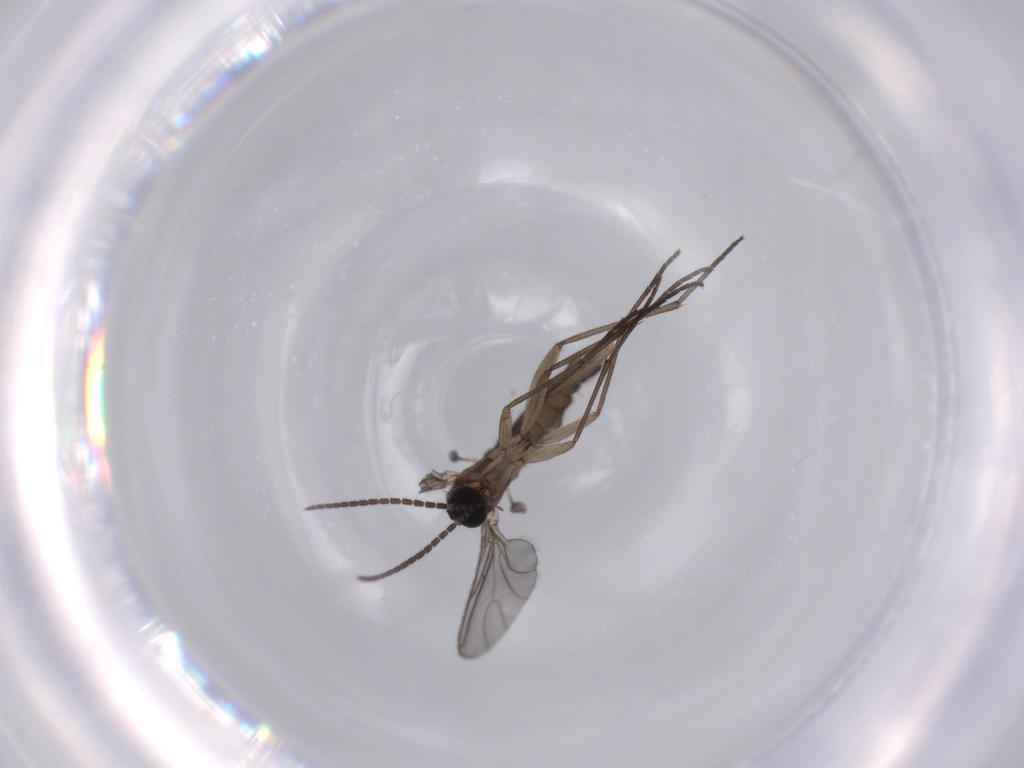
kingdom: Animalia
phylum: Arthropoda
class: Insecta
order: Diptera
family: Sciaridae
